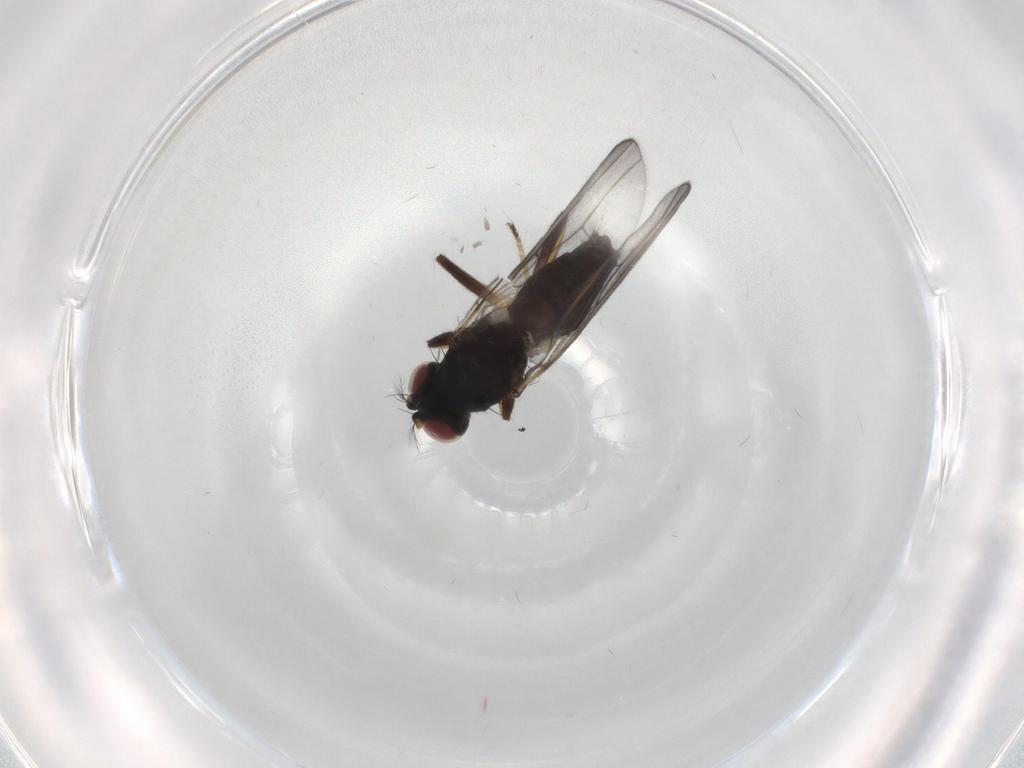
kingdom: Animalia
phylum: Arthropoda
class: Insecta
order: Diptera
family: Periscelididae
